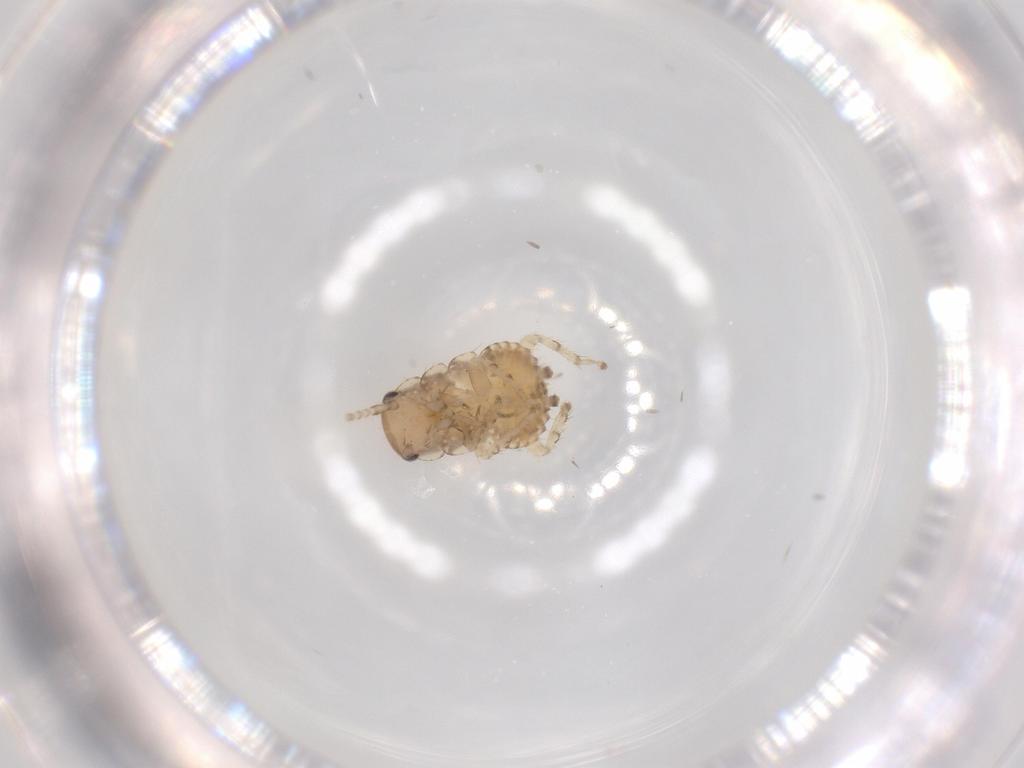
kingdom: Animalia
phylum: Arthropoda
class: Insecta
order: Blattodea
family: Ectobiidae
